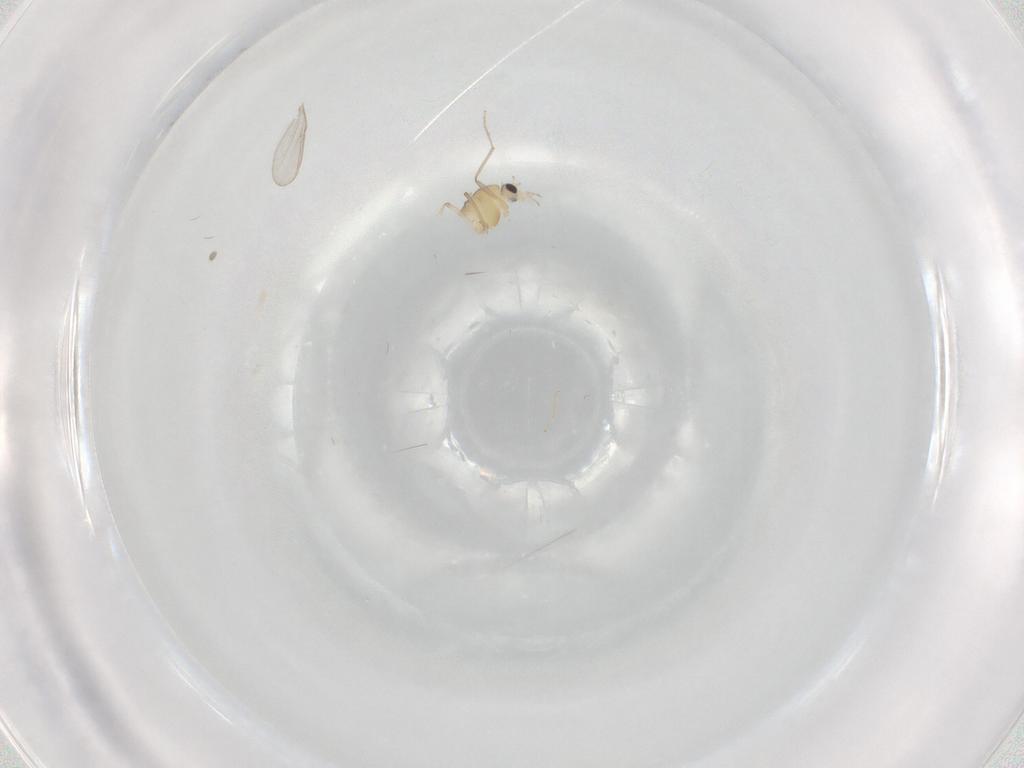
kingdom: Animalia
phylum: Arthropoda
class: Insecta
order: Diptera
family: Chironomidae
